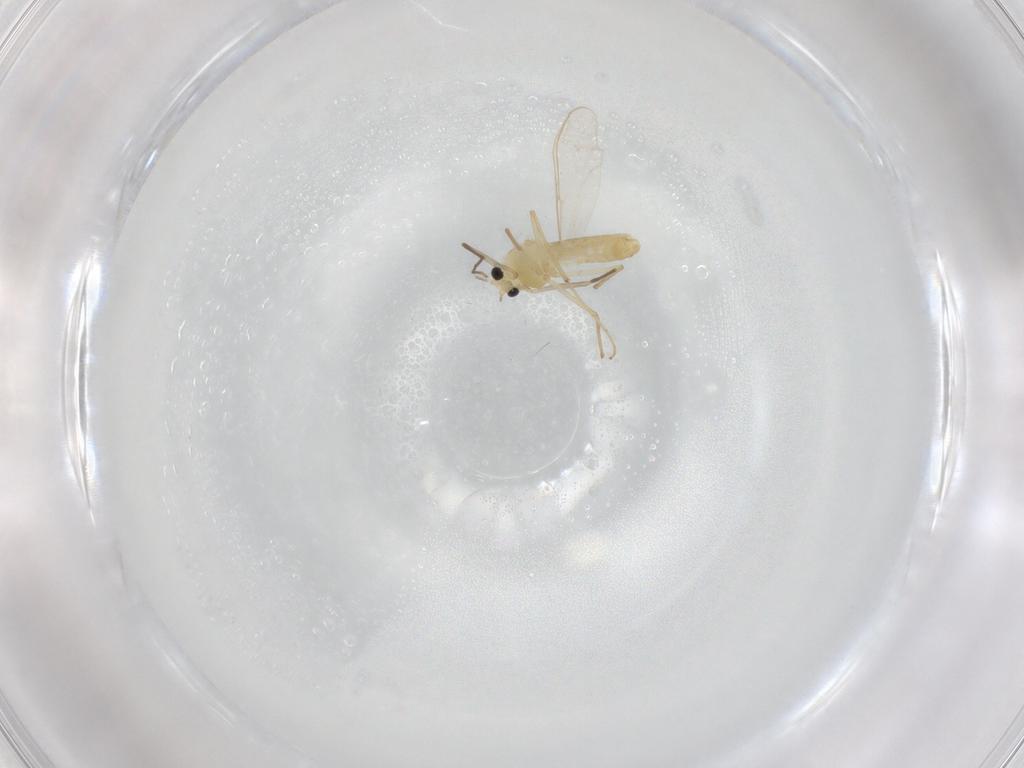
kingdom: Animalia
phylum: Arthropoda
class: Insecta
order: Diptera
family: Chironomidae
